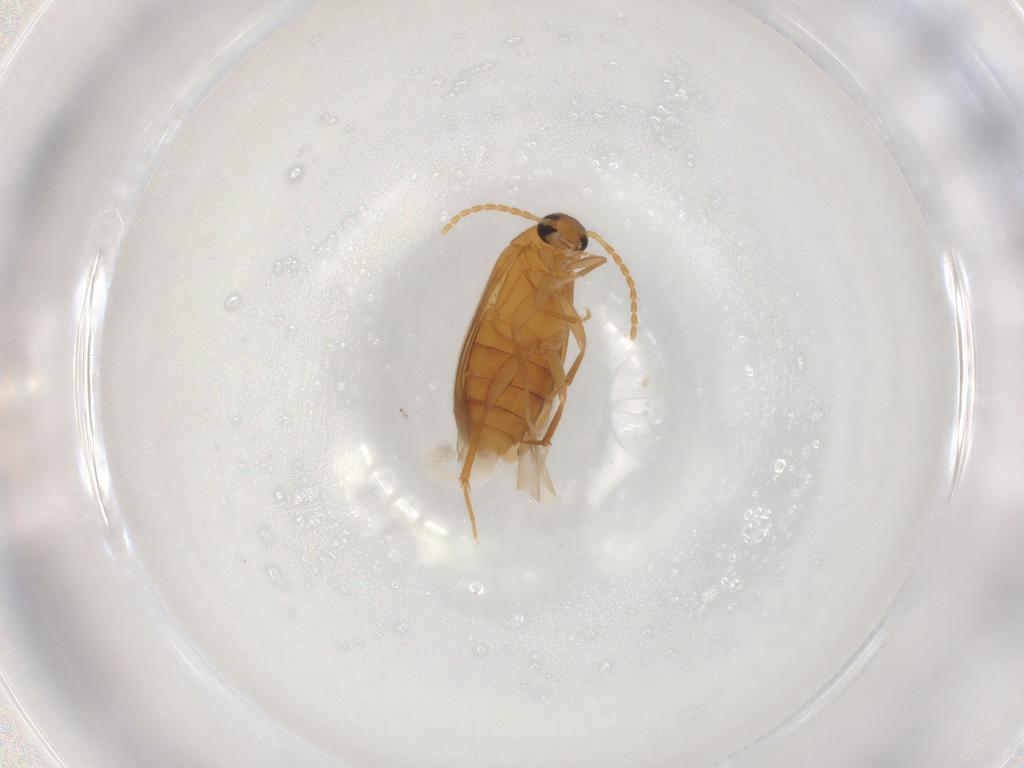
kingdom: Animalia
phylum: Arthropoda
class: Insecta
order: Coleoptera
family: Scraptiidae
